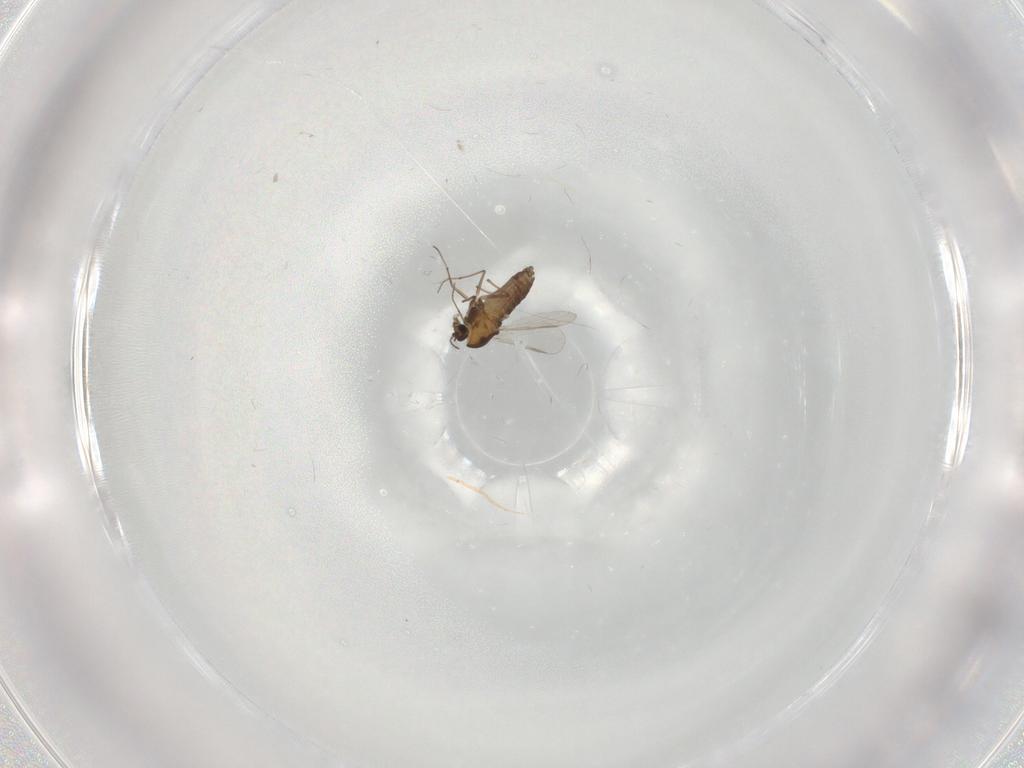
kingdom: Animalia
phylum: Arthropoda
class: Insecta
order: Diptera
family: Chironomidae
